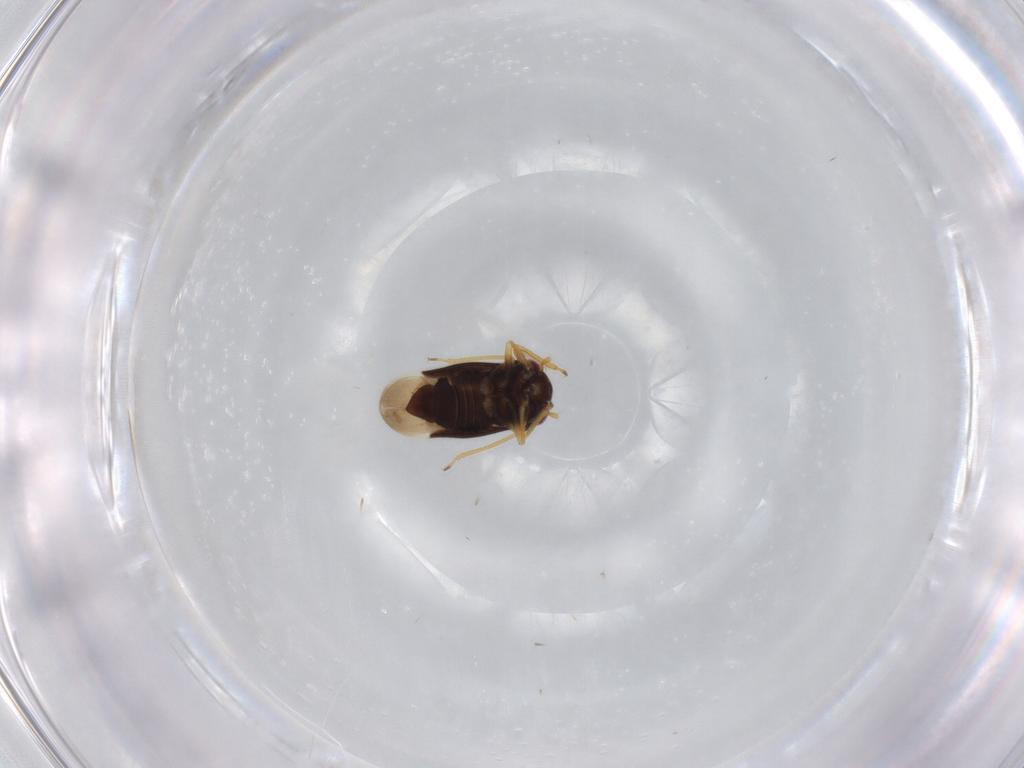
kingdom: Animalia
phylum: Arthropoda
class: Insecta
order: Hemiptera
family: Schizopteridae
